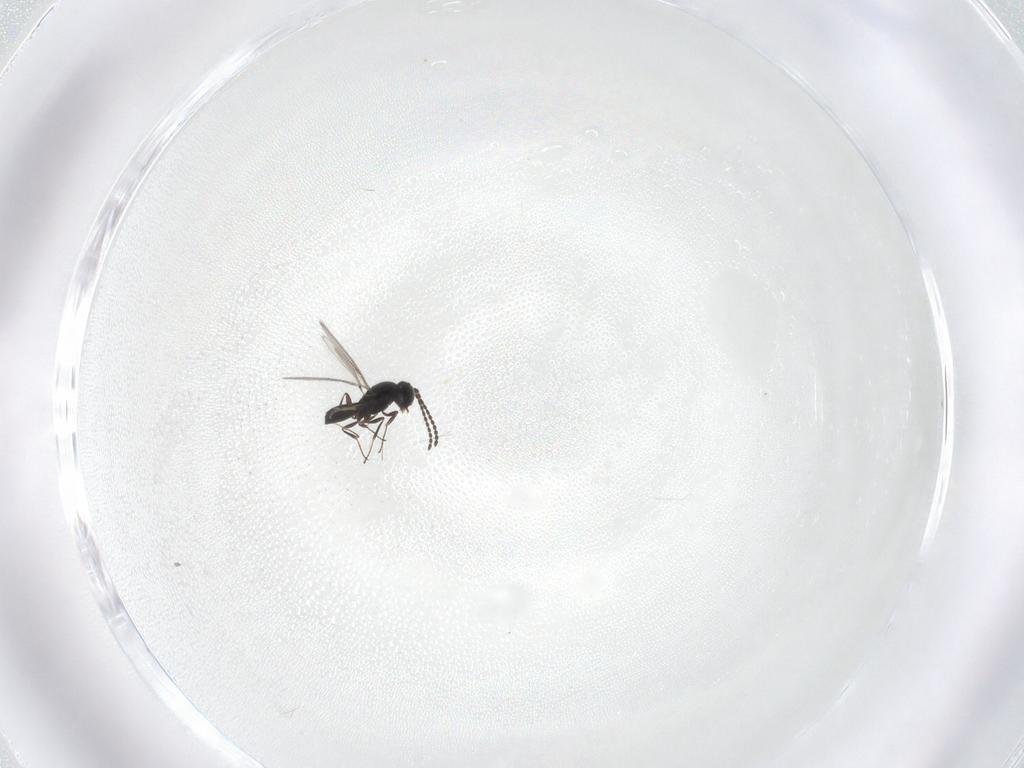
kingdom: Animalia
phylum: Arthropoda
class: Insecta
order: Hymenoptera
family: Scelionidae
